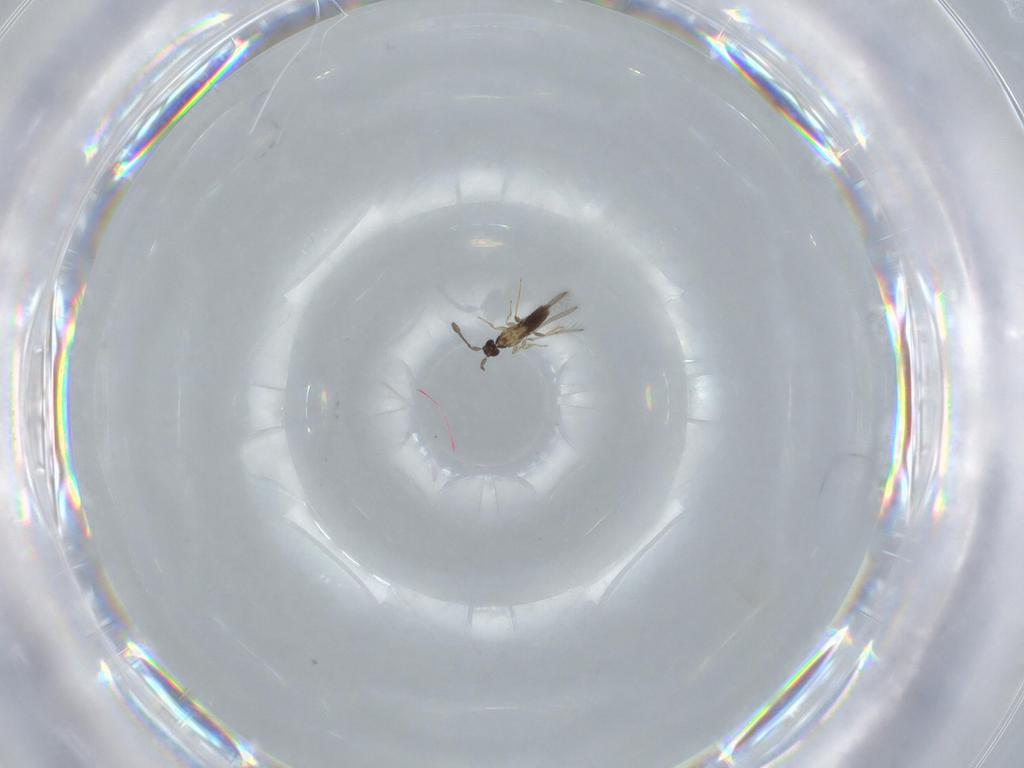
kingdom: Animalia
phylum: Arthropoda
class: Insecta
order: Hymenoptera
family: Mymaridae
